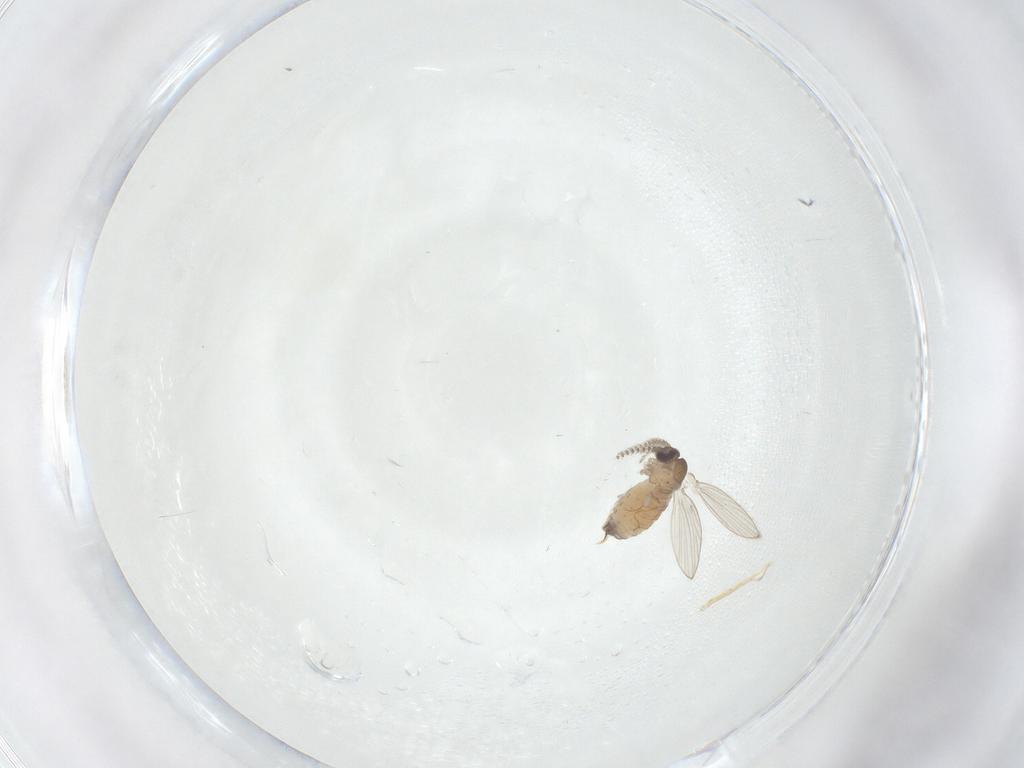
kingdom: Animalia
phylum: Arthropoda
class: Insecta
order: Diptera
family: Psychodidae
